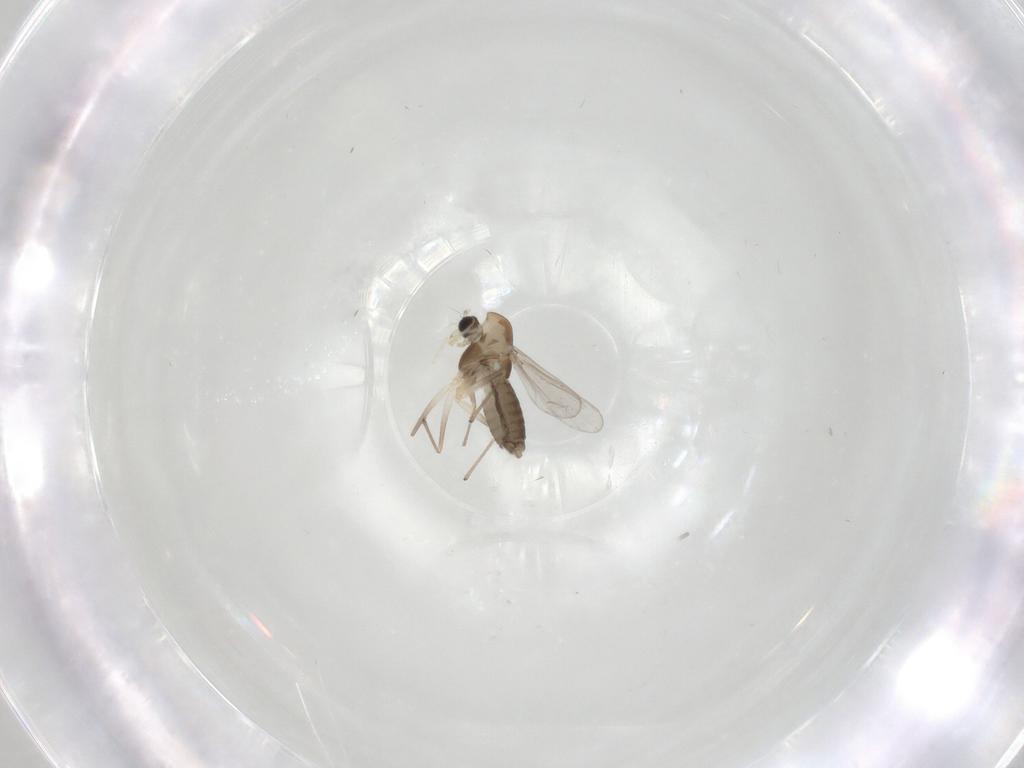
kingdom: Animalia
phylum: Arthropoda
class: Insecta
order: Diptera
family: Chironomidae
